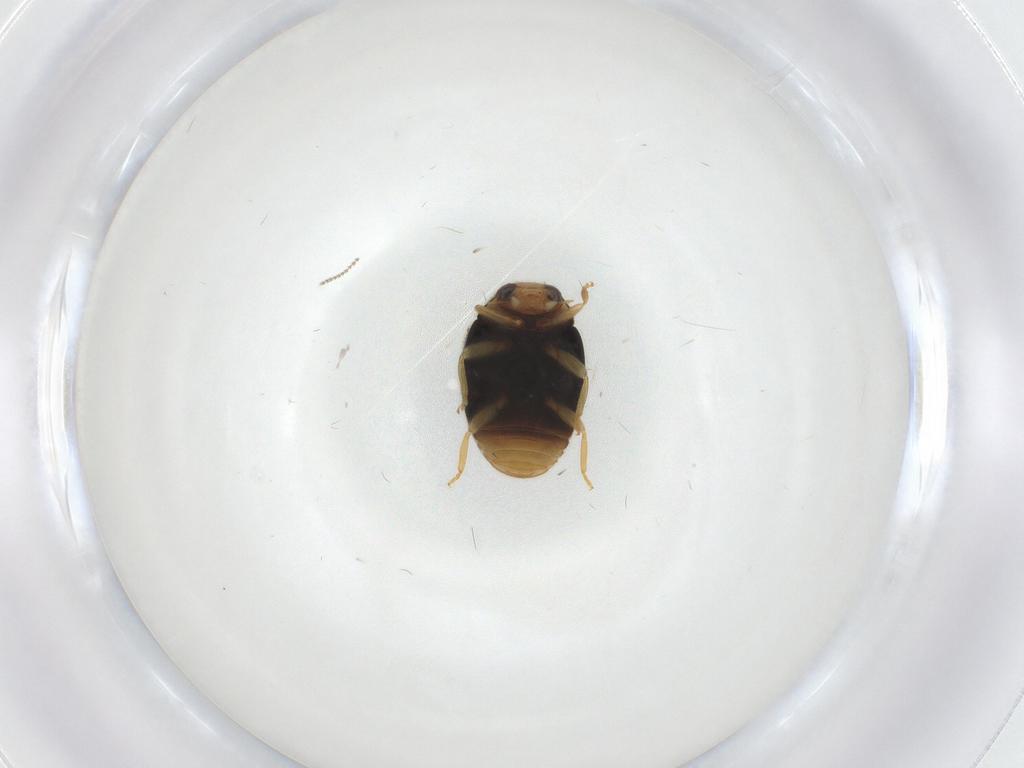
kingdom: Animalia
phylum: Arthropoda
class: Insecta
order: Coleoptera
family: Coccinellidae
